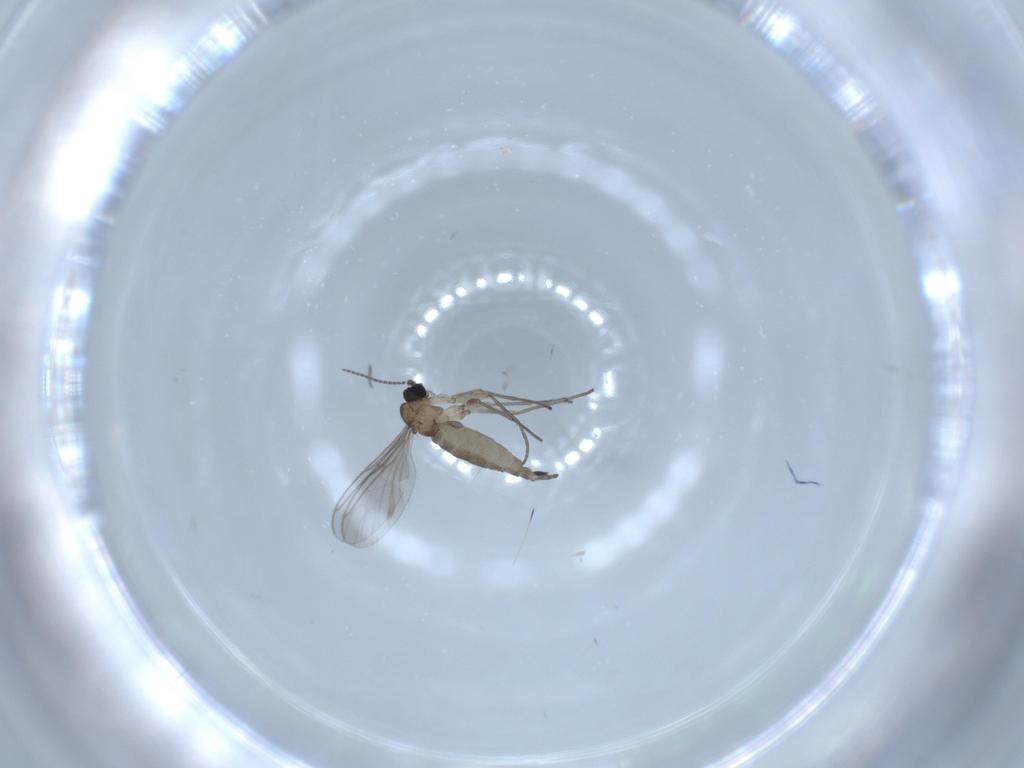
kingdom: Animalia
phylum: Arthropoda
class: Insecta
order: Diptera
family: Sciaridae
